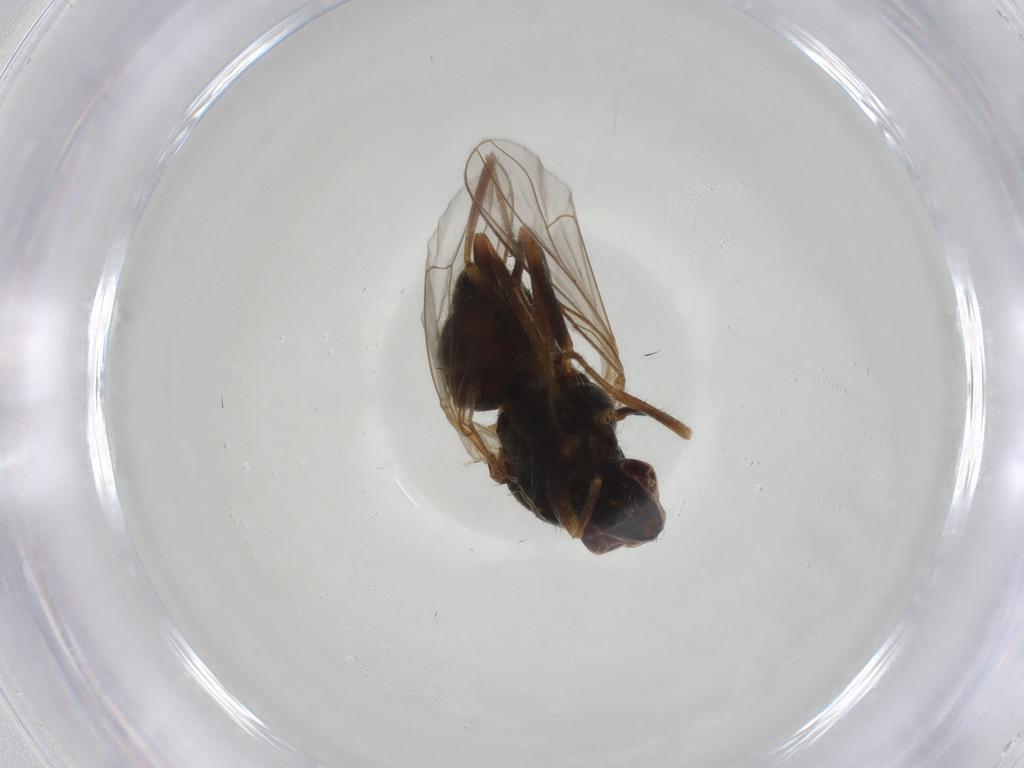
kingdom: Animalia
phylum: Arthropoda
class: Insecta
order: Diptera
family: Muscidae
